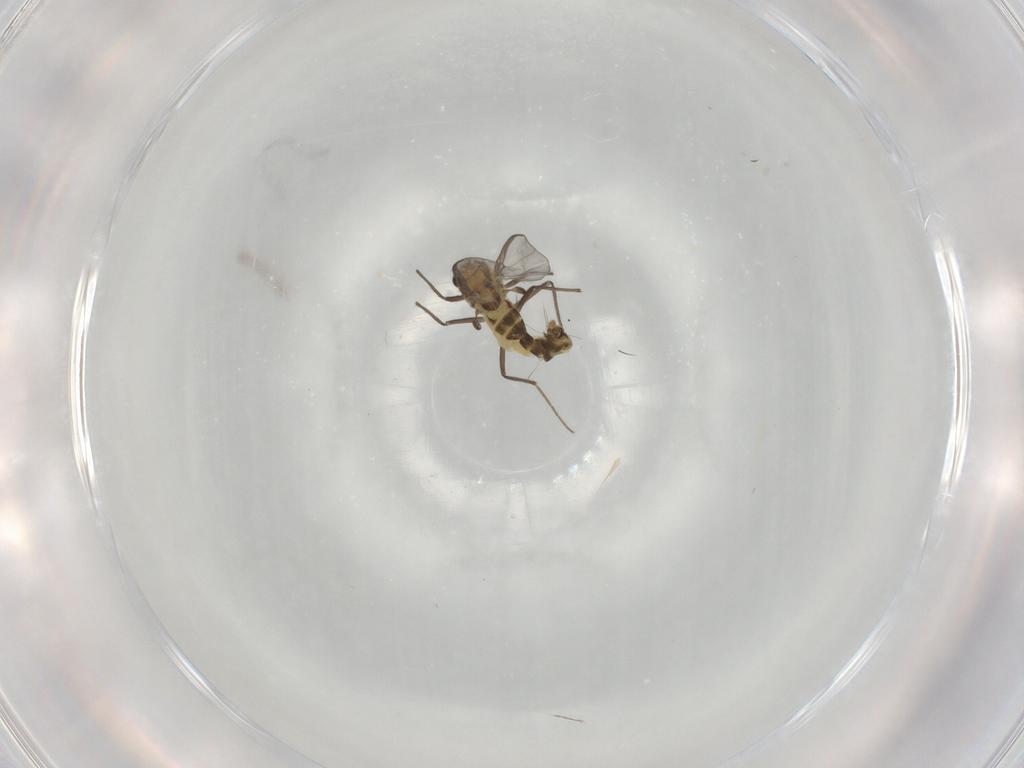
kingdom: Animalia
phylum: Arthropoda
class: Insecta
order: Diptera
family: Chironomidae
